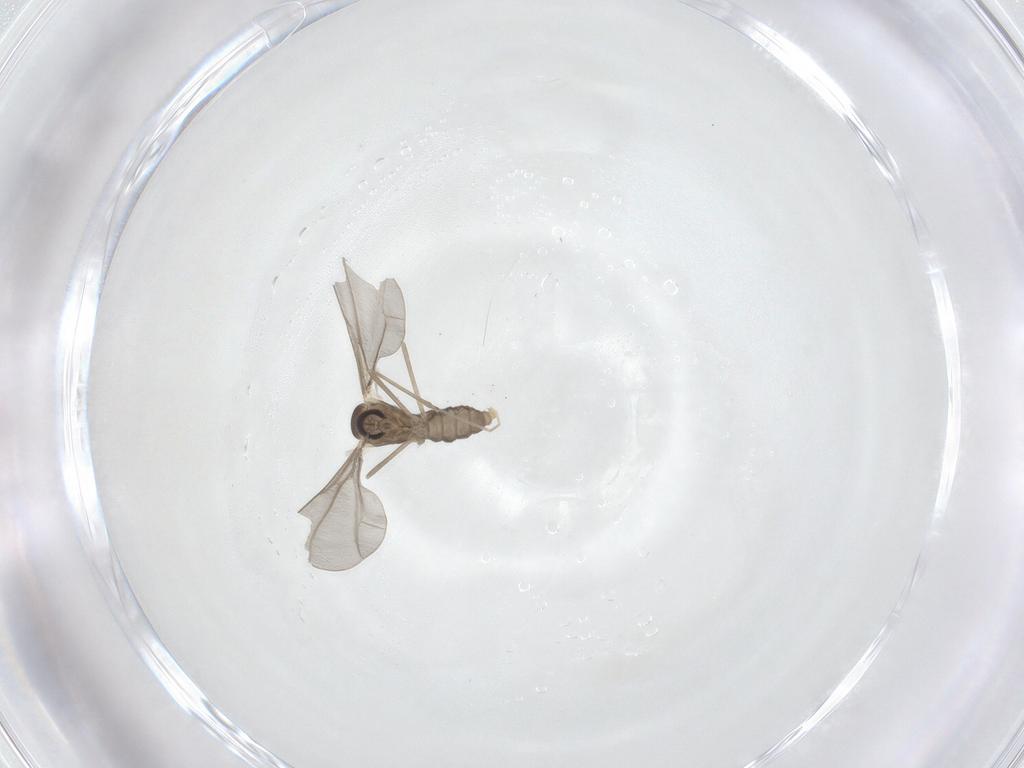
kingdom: Animalia
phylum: Arthropoda
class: Insecta
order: Diptera
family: Cecidomyiidae
